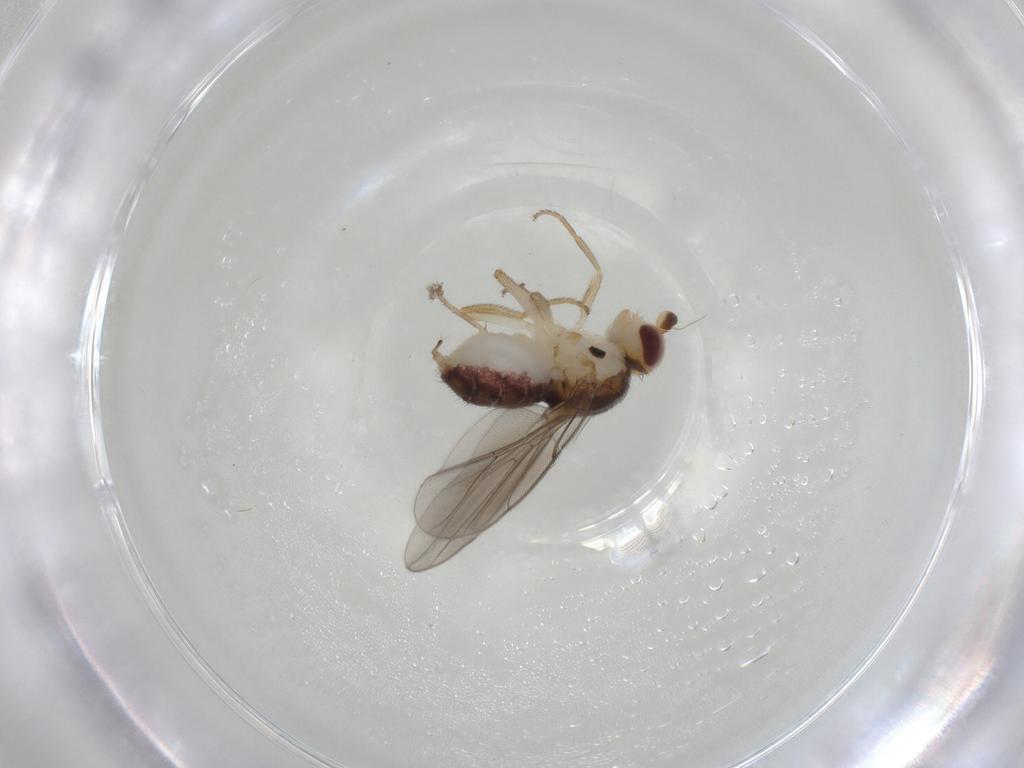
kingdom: Animalia
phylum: Arthropoda
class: Insecta
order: Diptera
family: Chloropidae
